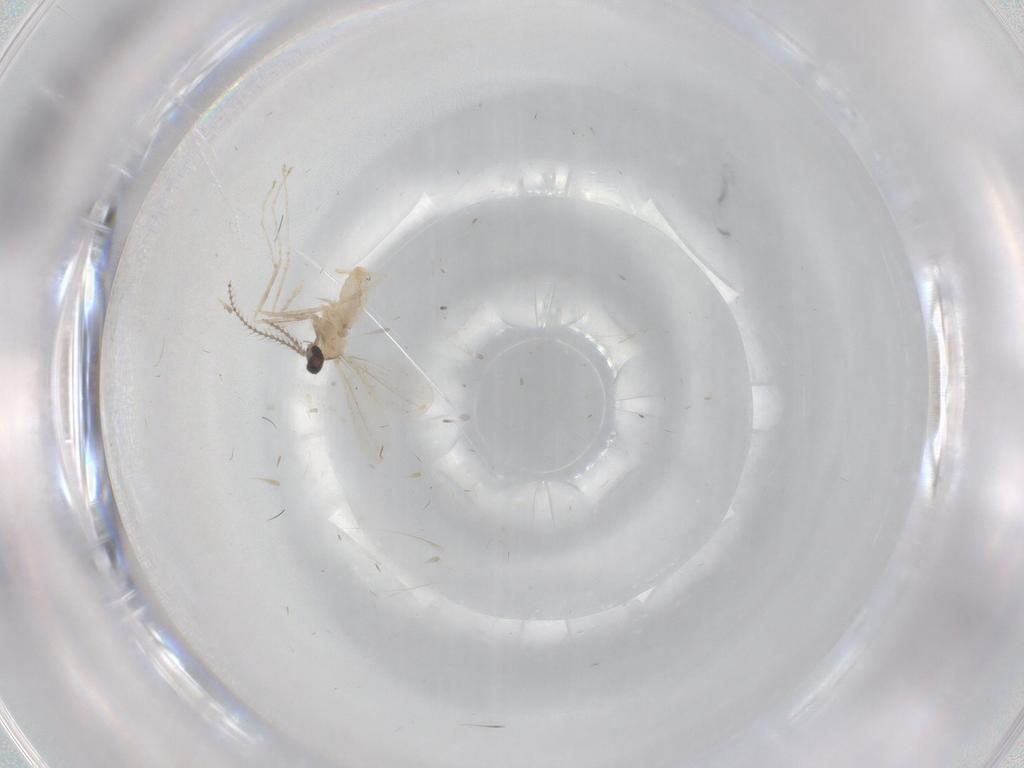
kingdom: Animalia
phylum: Arthropoda
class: Insecta
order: Diptera
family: Cecidomyiidae
